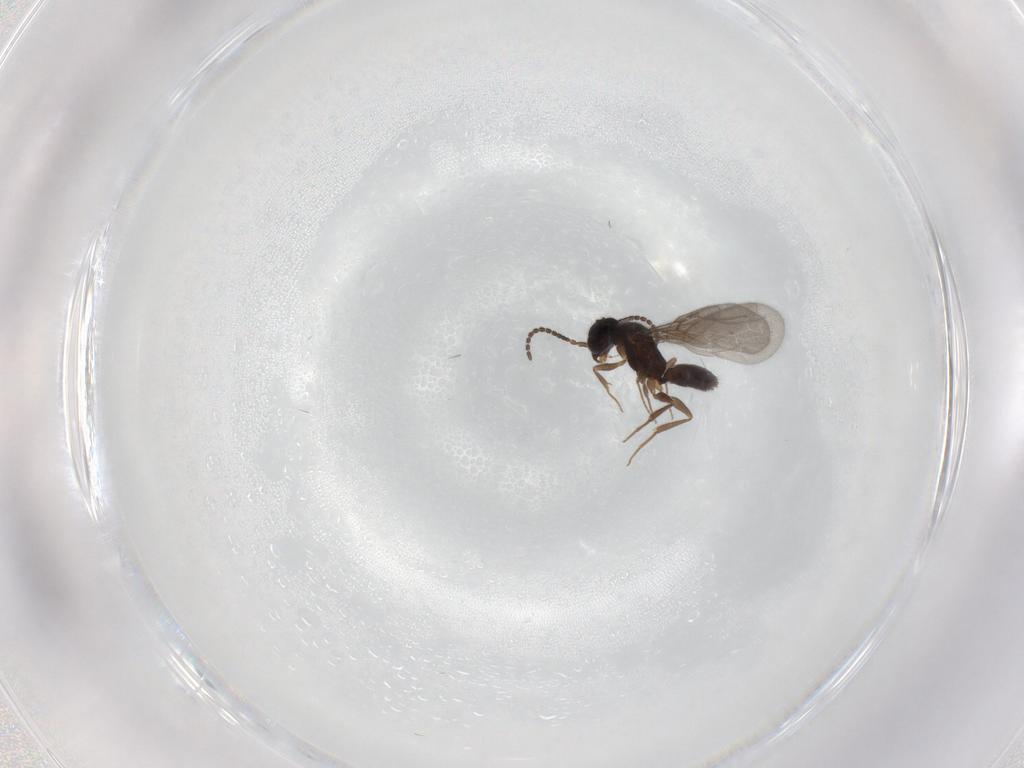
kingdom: Animalia
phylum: Arthropoda
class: Insecta
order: Hymenoptera
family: Bethylidae
